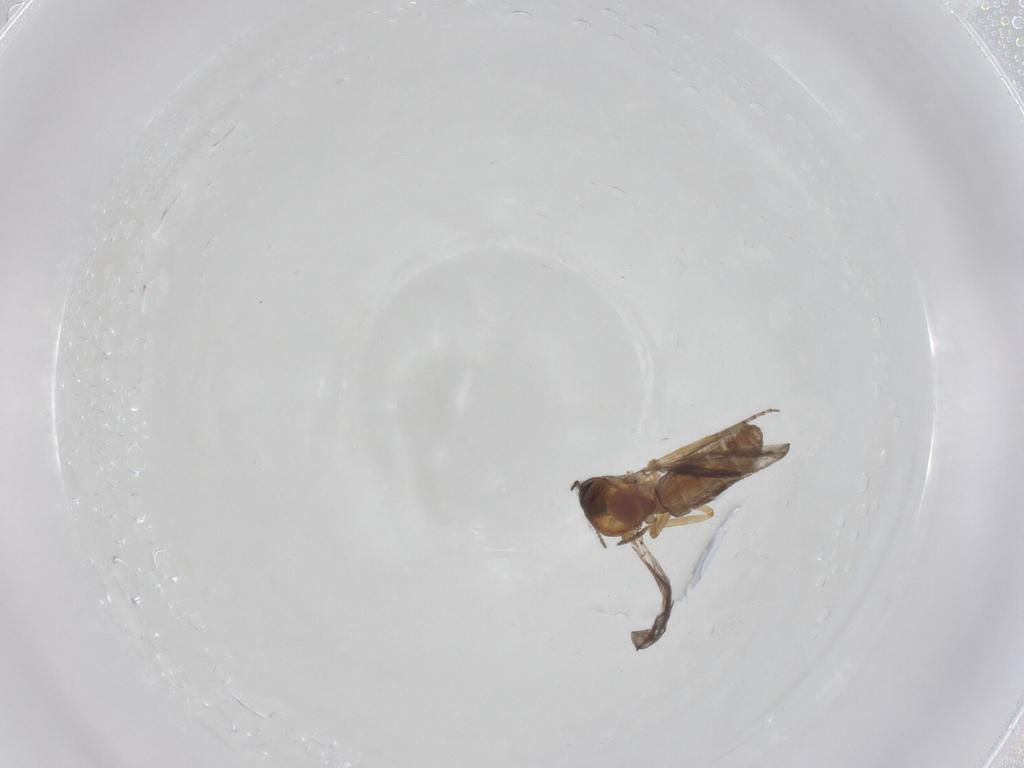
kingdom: Animalia
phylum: Arthropoda
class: Insecta
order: Diptera
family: Ceratopogonidae
